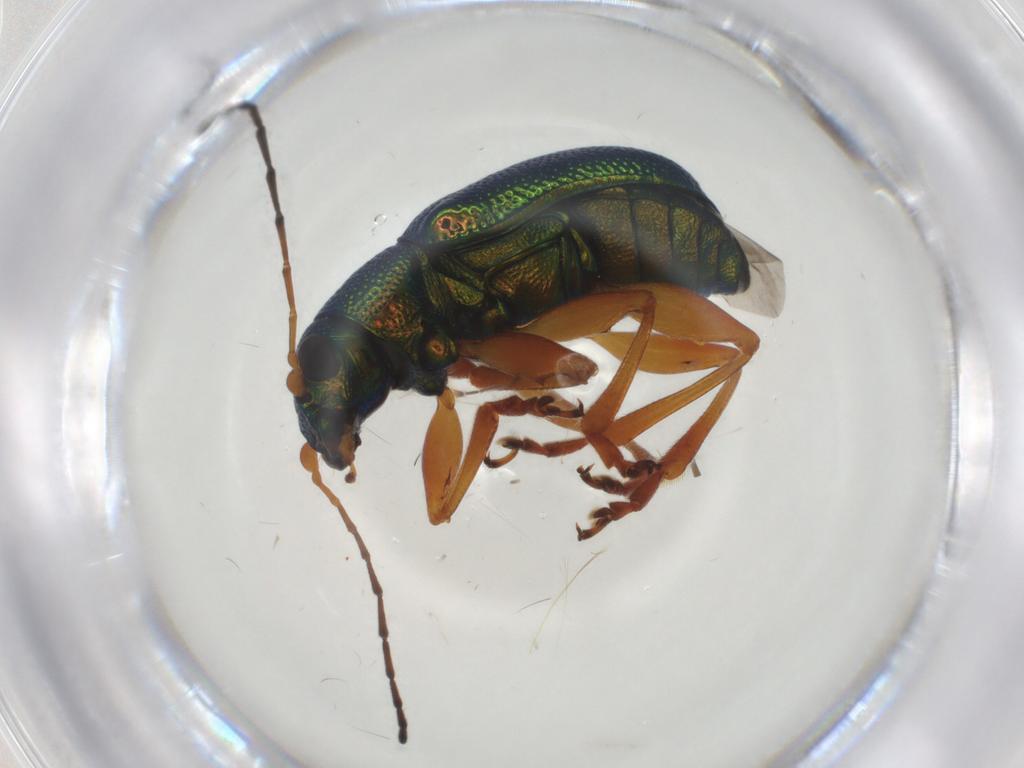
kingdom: Animalia
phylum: Arthropoda
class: Insecta
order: Coleoptera
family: Chrysomelidae
